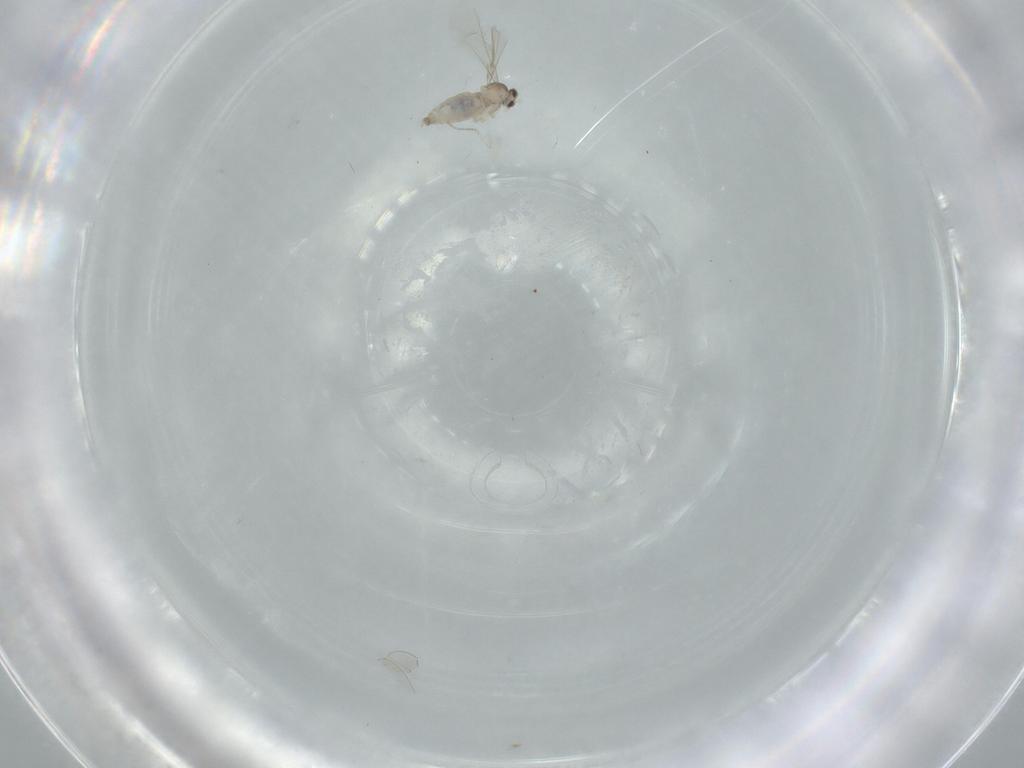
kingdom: Animalia
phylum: Arthropoda
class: Insecta
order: Diptera
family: Cecidomyiidae
